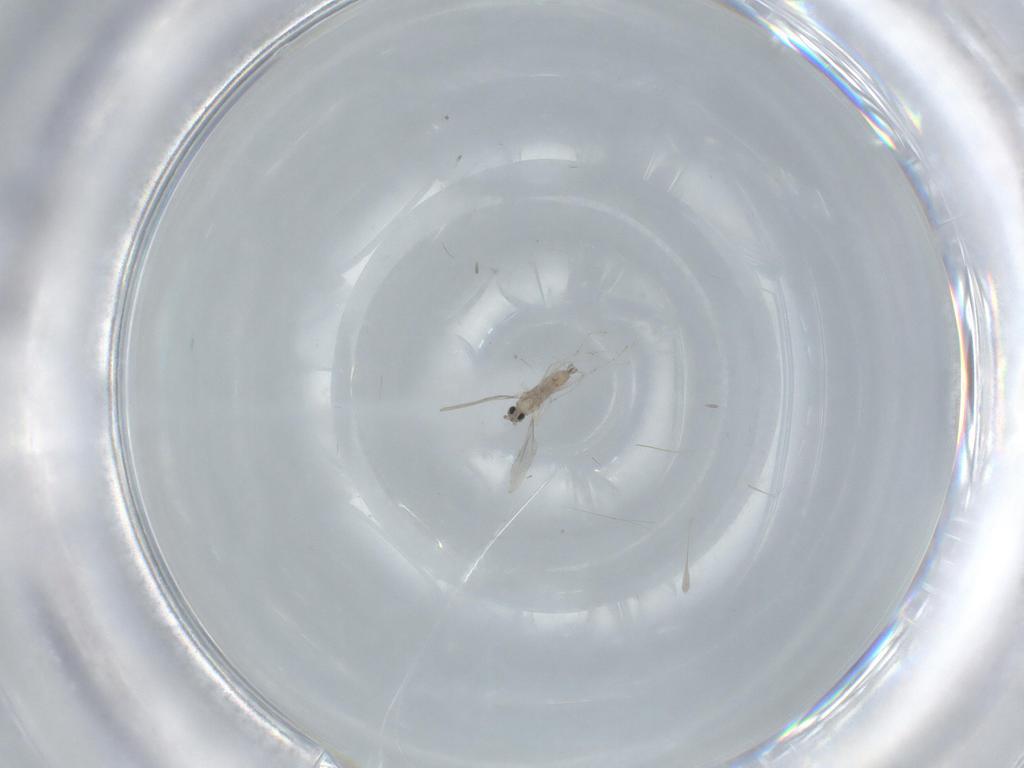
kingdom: Animalia
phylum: Arthropoda
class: Insecta
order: Diptera
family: Cecidomyiidae
